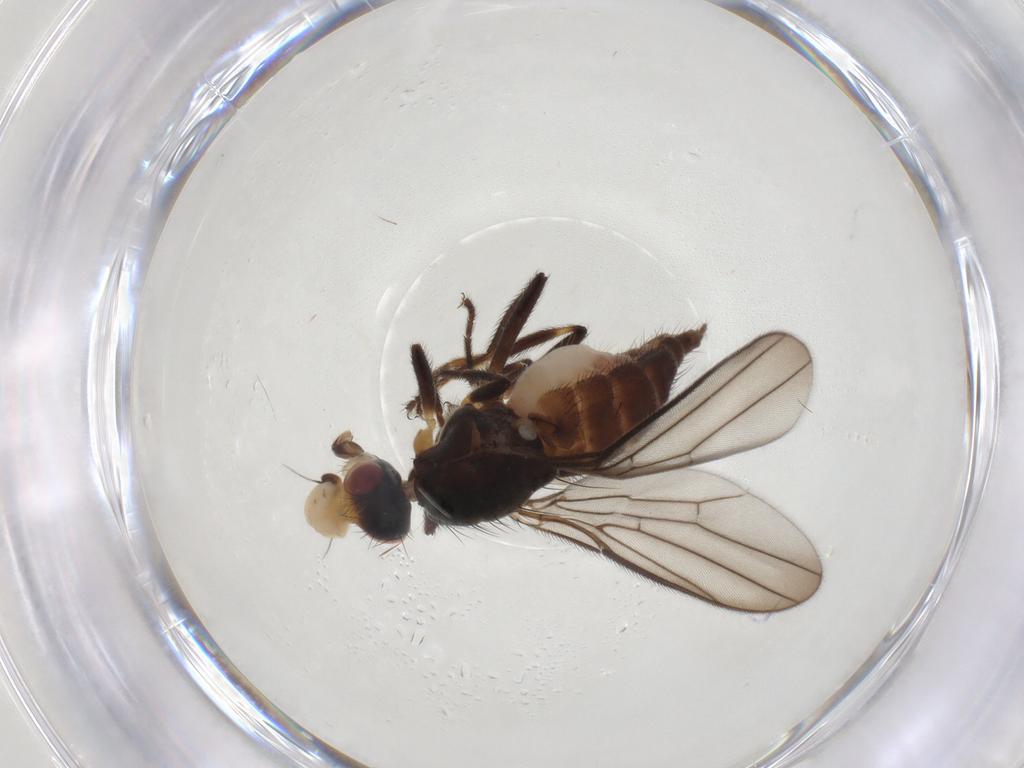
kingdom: Animalia
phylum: Arthropoda
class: Insecta
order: Diptera
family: Chloropidae
